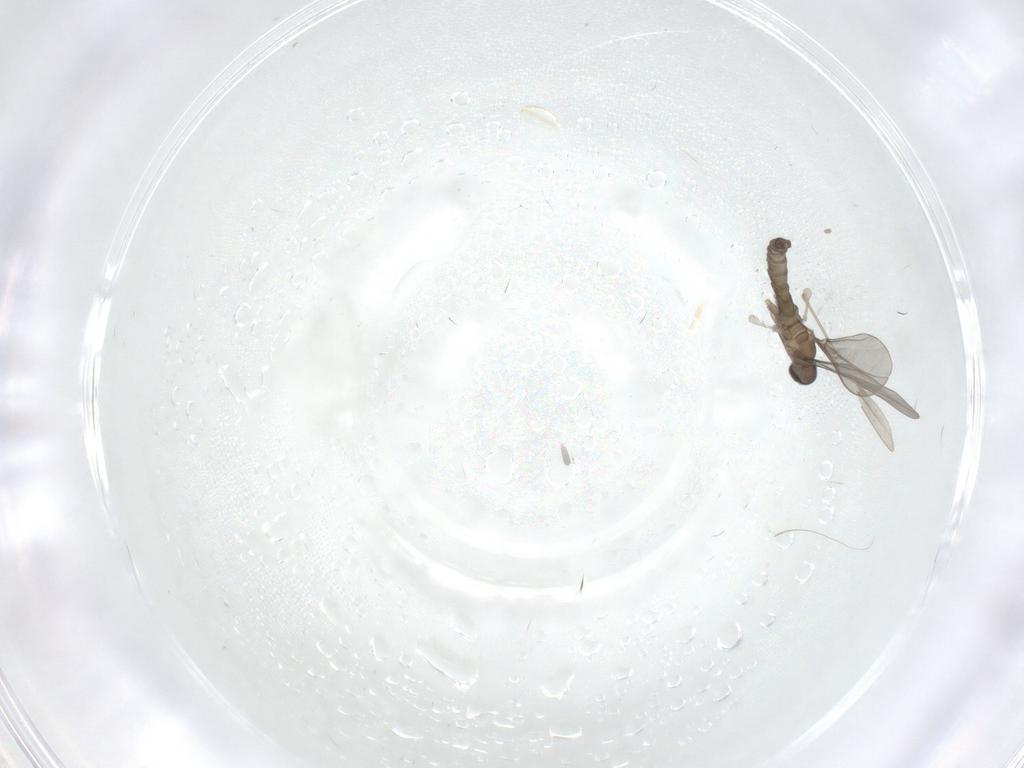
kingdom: Animalia
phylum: Arthropoda
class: Insecta
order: Diptera
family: Cecidomyiidae
